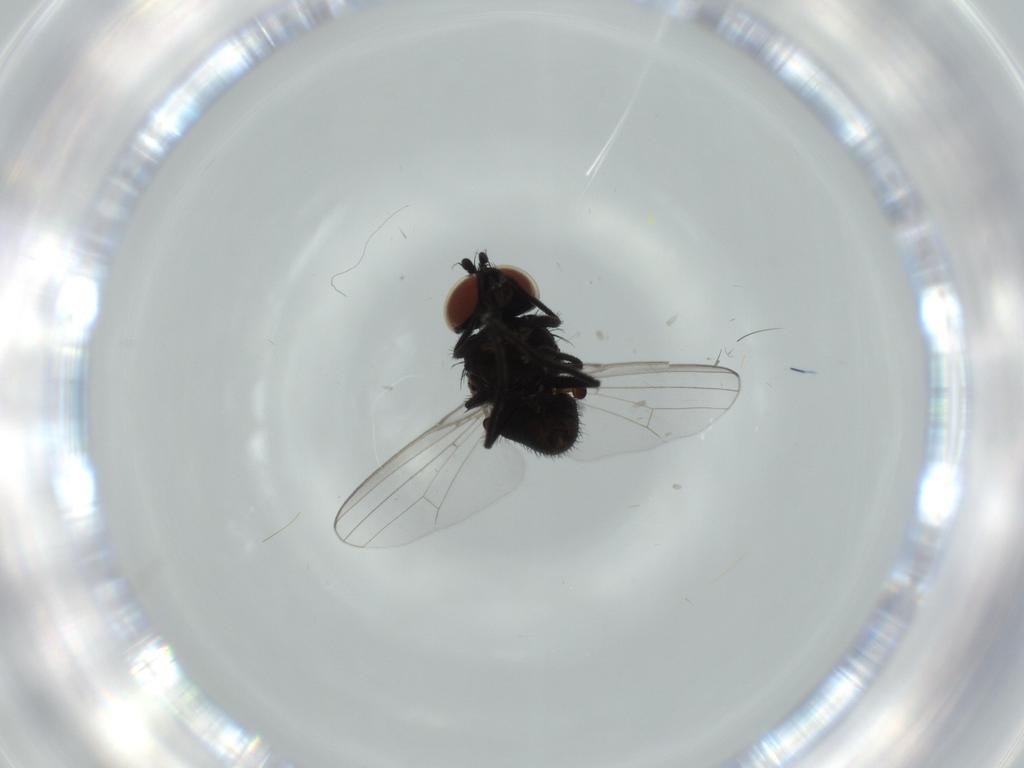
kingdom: Animalia
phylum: Arthropoda
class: Insecta
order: Diptera
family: Milichiidae
